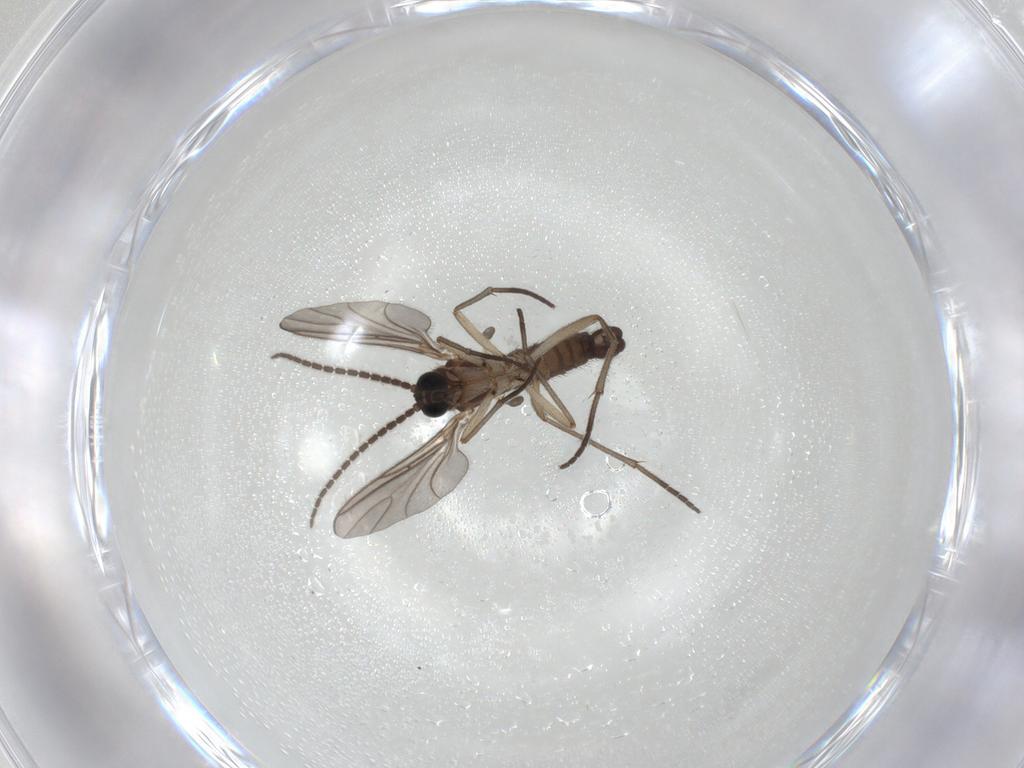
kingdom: Animalia
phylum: Arthropoda
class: Insecta
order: Diptera
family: Sciaridae
